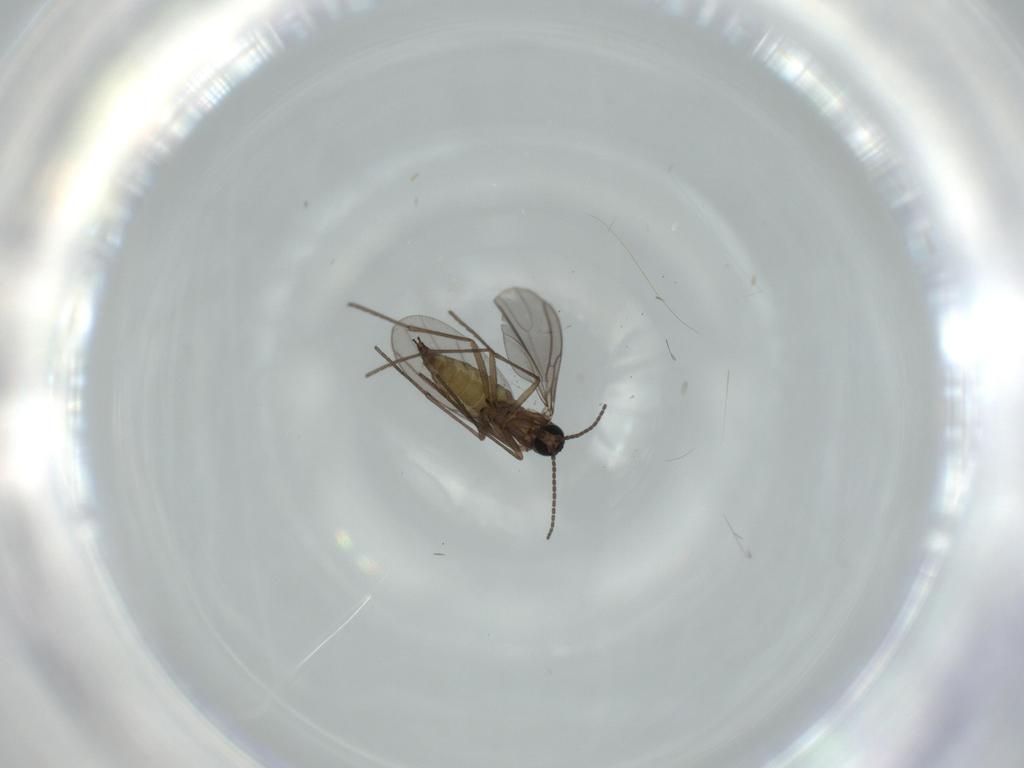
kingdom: Animalia
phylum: Arthropoda
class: Insecta
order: Diptera
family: Sciaridae
